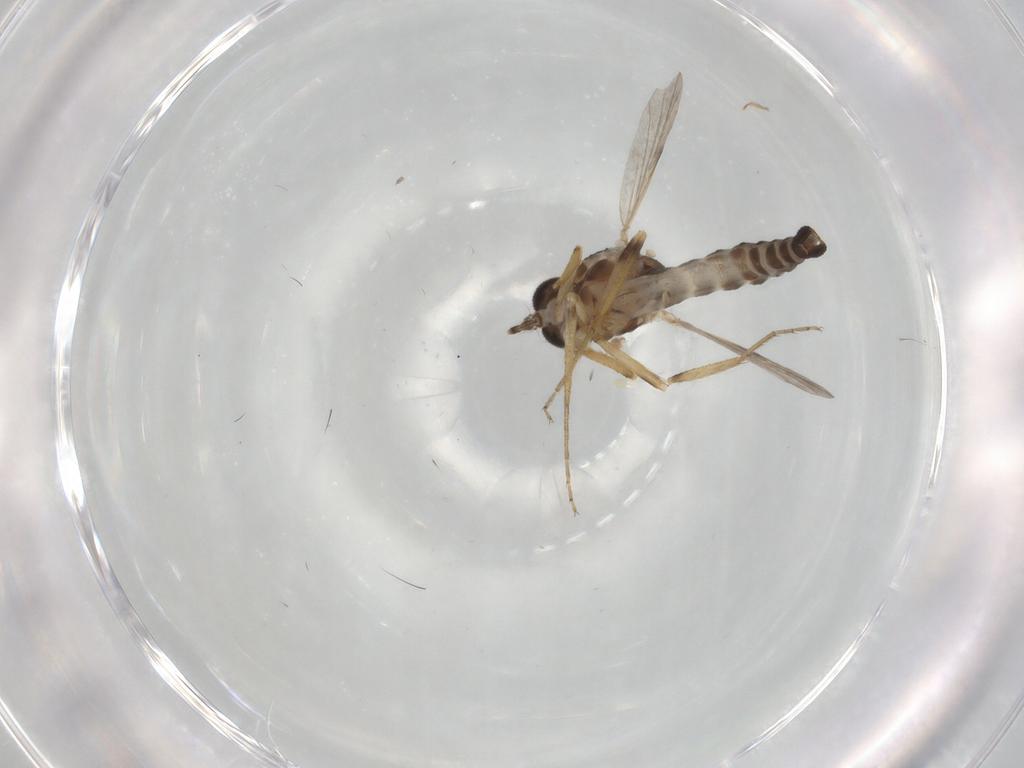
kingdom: Animalia
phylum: Arthropoda
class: Insecta
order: Diptera
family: Ceratopogonidae
